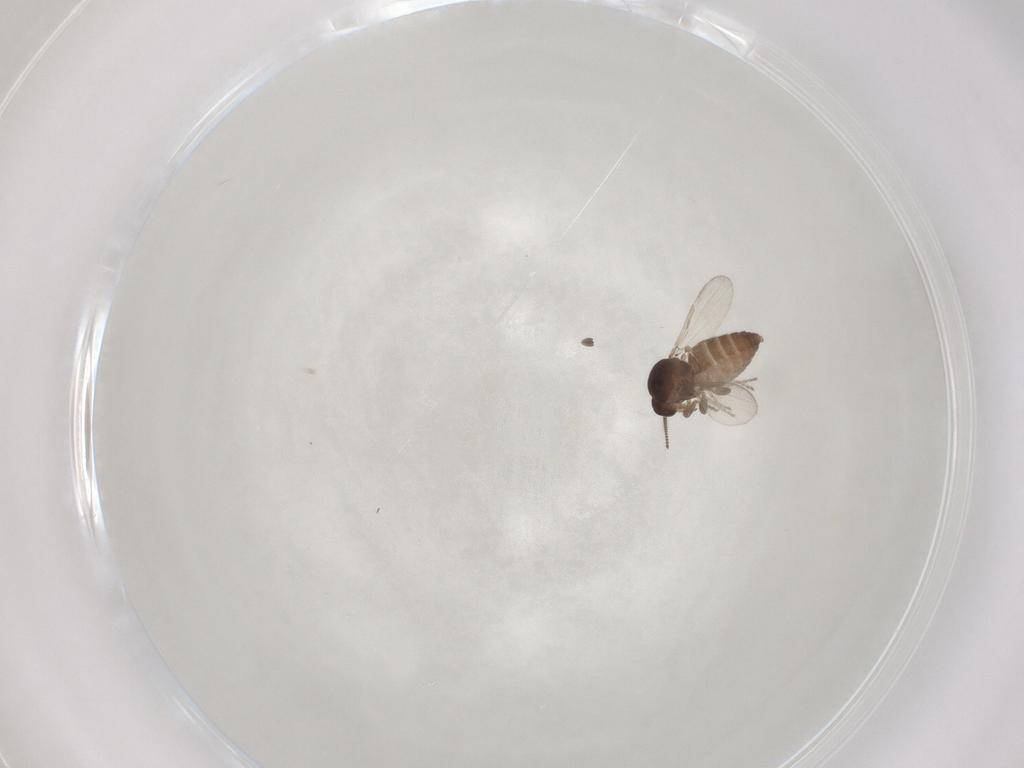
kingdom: Animalia
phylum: Arthropoda
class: Insecta
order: Diptera
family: Ceratopogonidae
